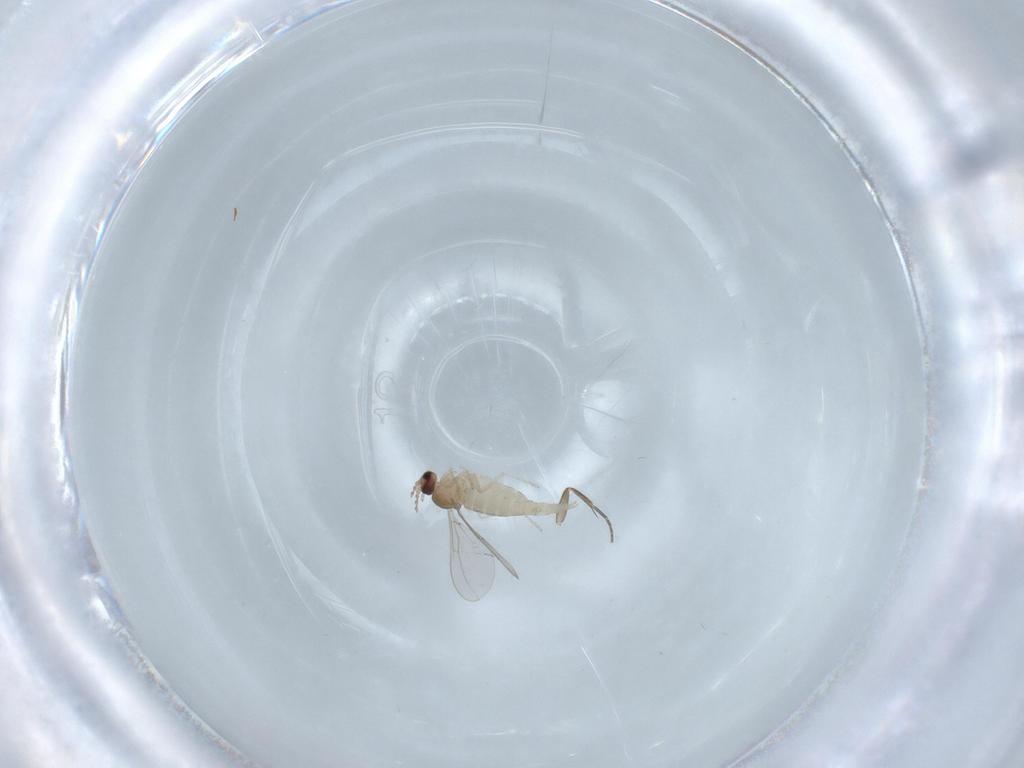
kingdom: Animalia
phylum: Arthropoda
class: Insecta
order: Diptera
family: Cecidomyiidae
